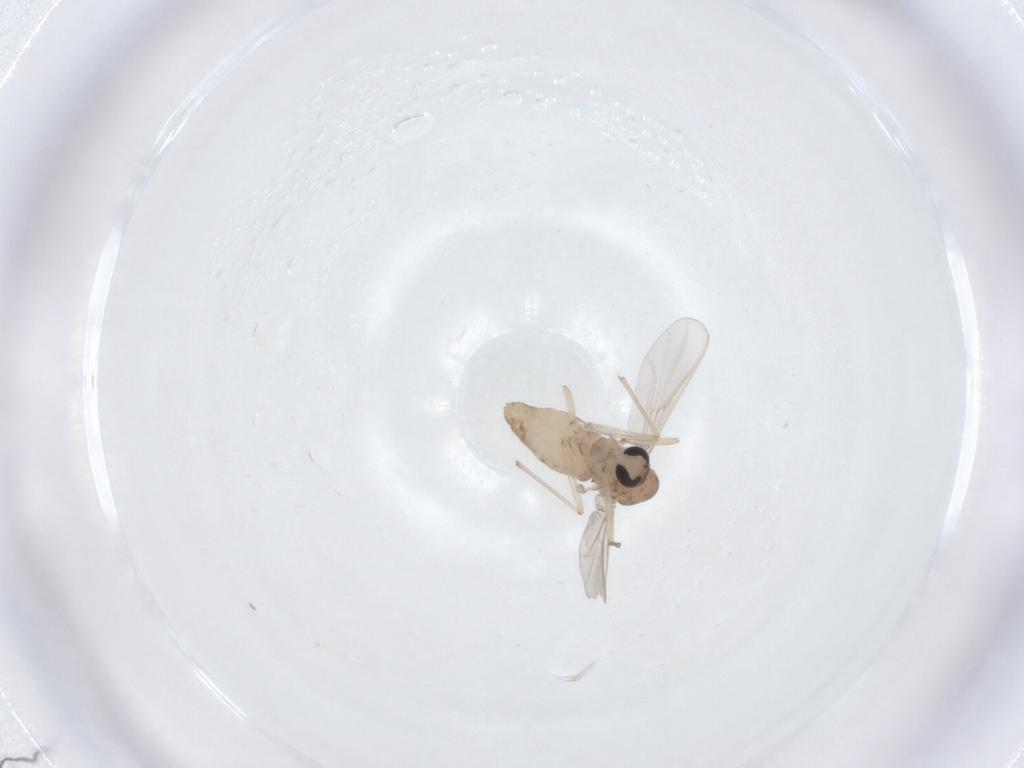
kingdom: Animalia
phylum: Arthropoda
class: Insecta
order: Diptera
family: Chironomidae
